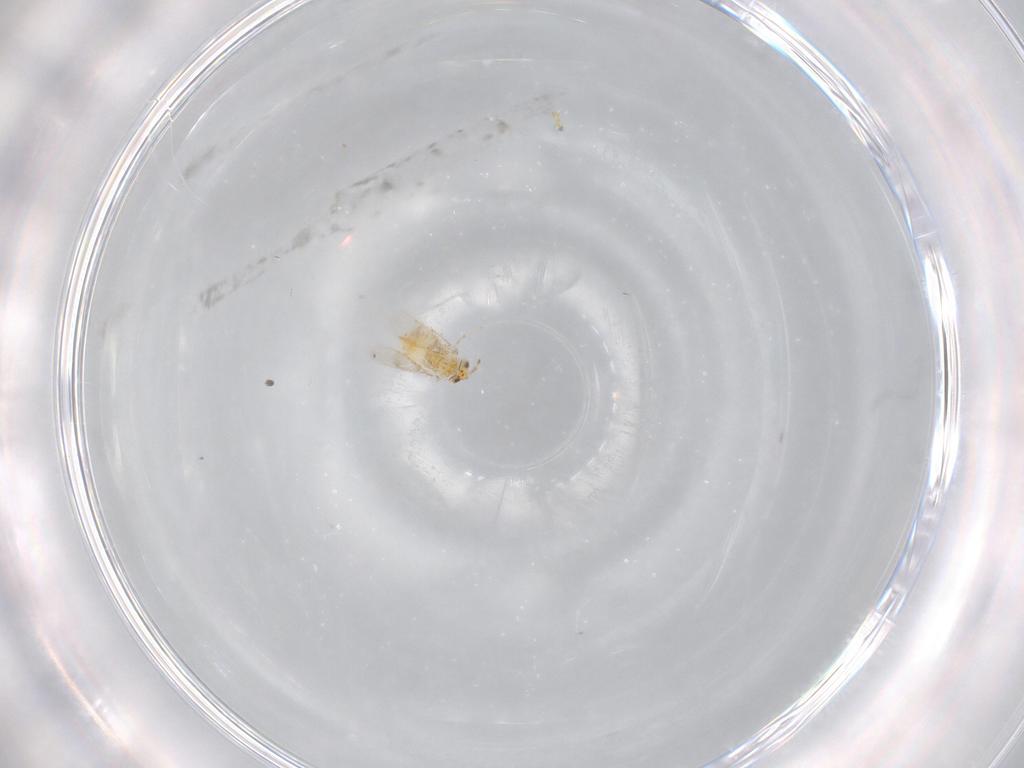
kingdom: Animalia
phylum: Arthropoda
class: Insecta
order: Hymenoptera
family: Aphelinidae
